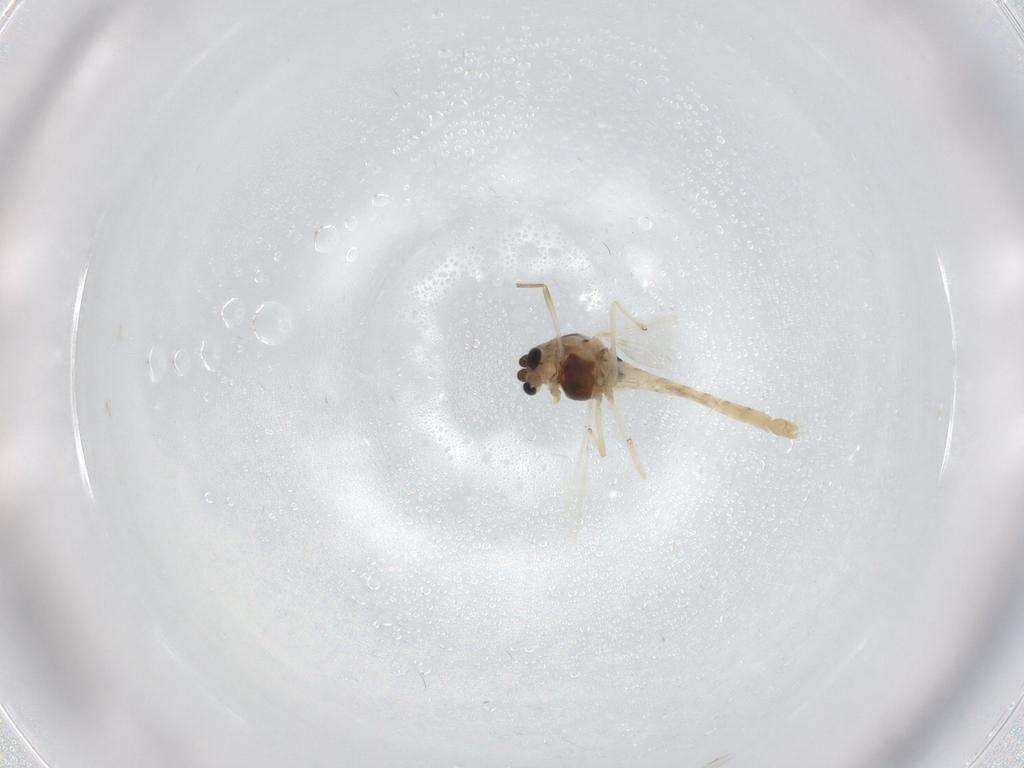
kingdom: Animalia
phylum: Arthropoda
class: Insecta
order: Diptera
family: Chironomidae
